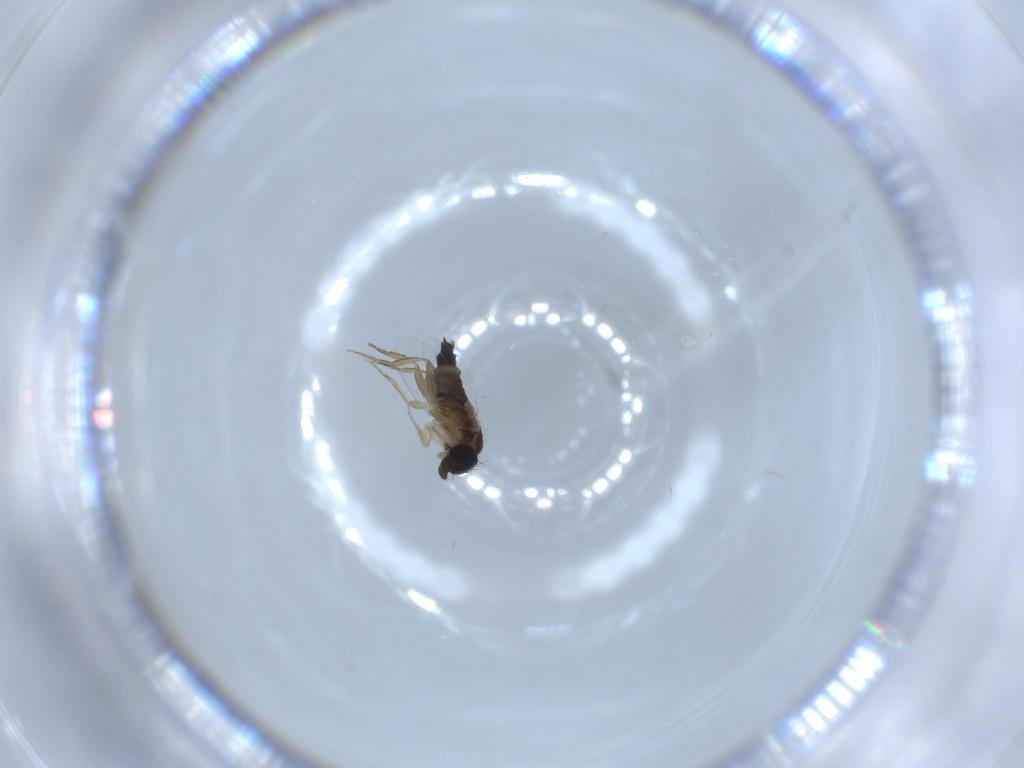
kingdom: Animalia
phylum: Arthropoda
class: Insecta
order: Diptera
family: Phoridae
